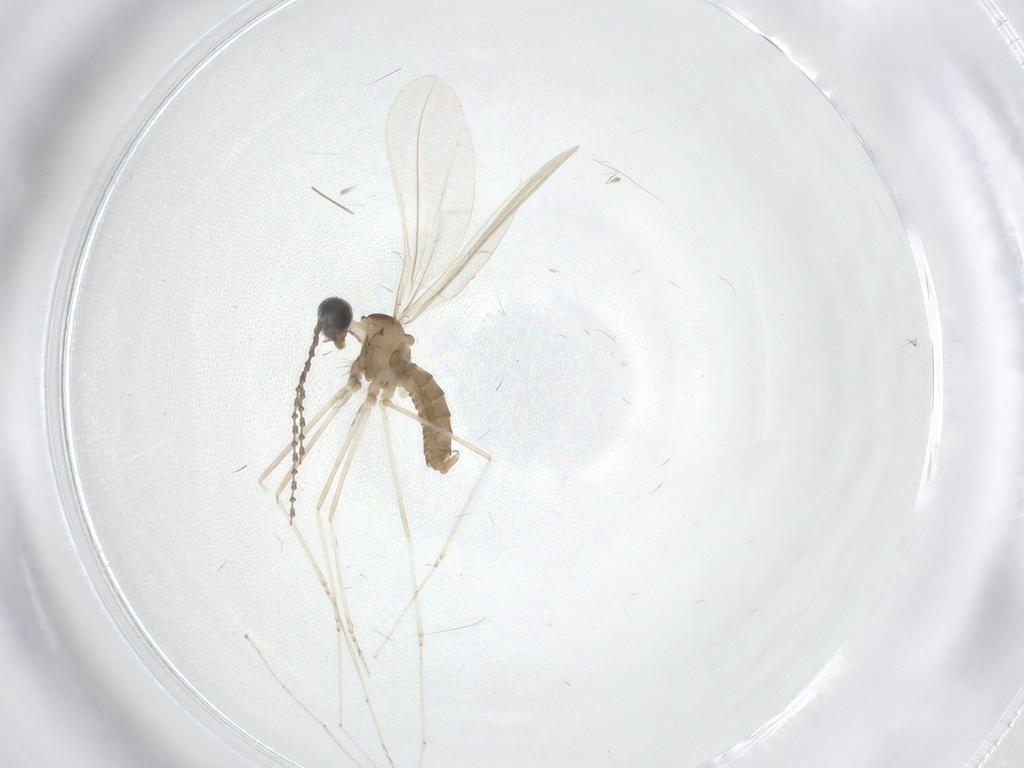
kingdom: Animalia
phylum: Arthropoda
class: Insecta
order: Diptera
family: Cecidomyiidae
